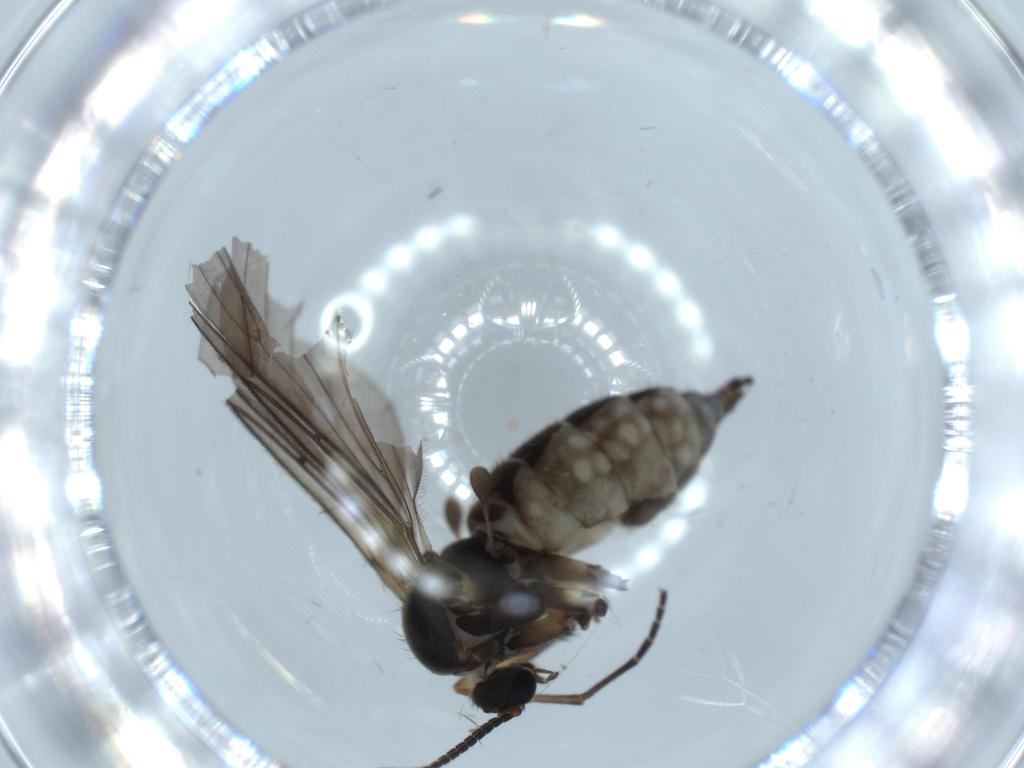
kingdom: Animalia
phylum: Arthropoda
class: Insecta
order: Diptera
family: Sciaridae
